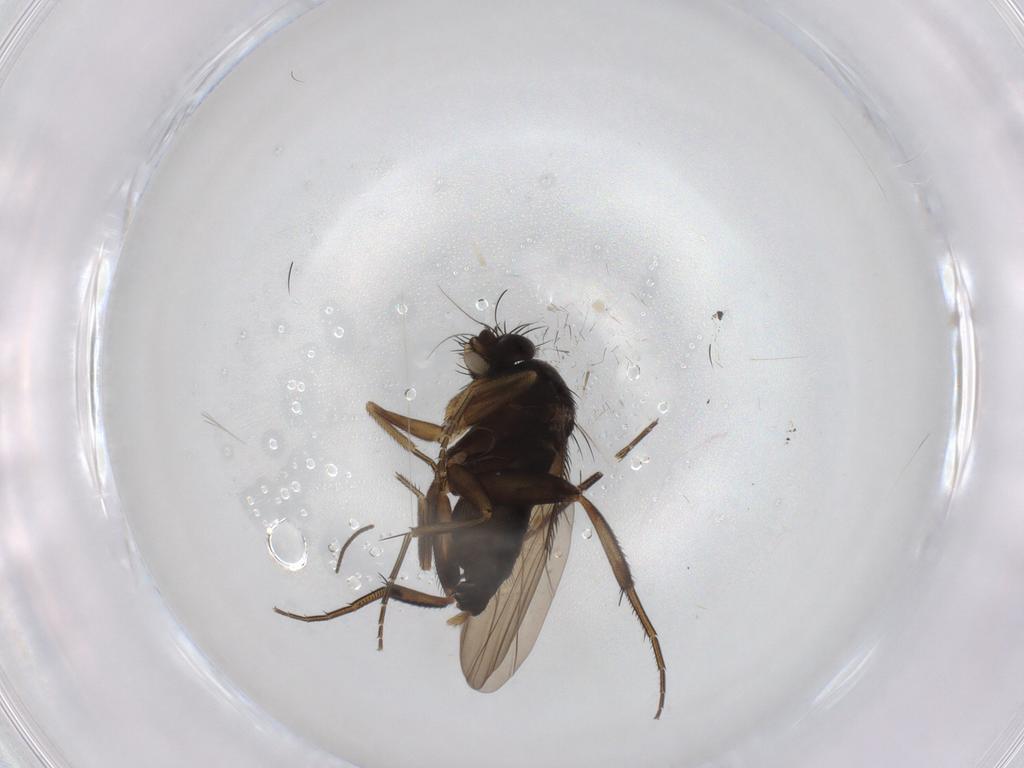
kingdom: Animalia
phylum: Arthropoda
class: Insecta
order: Diptera
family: Phoridae
